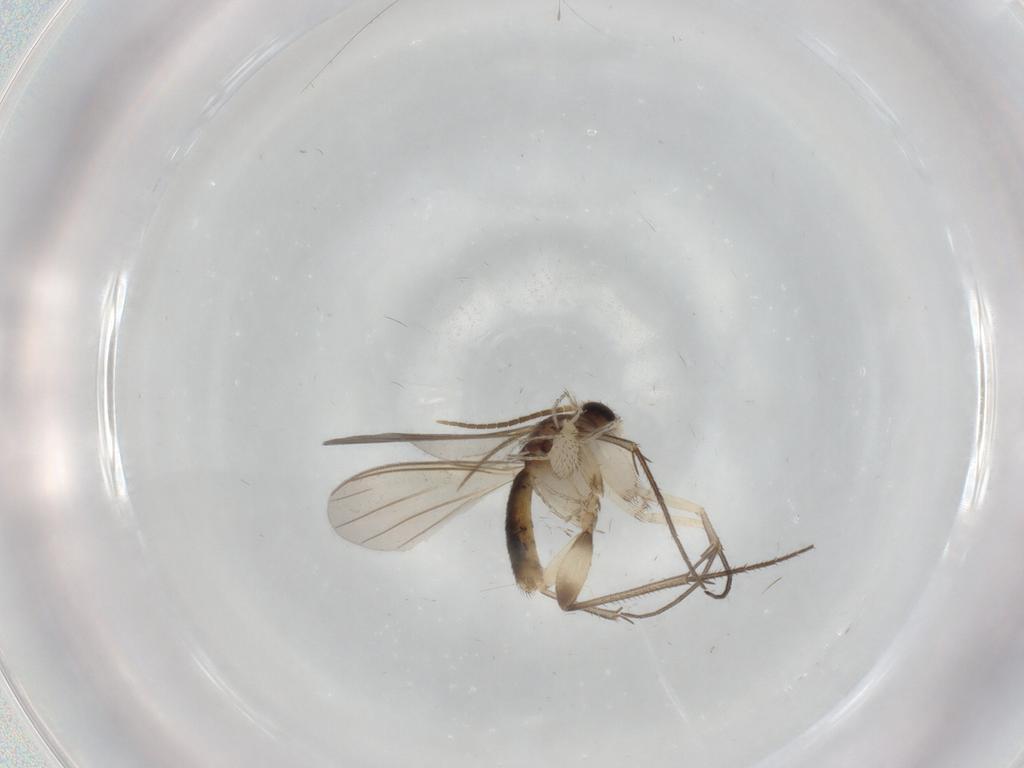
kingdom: Animalia
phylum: Arthropoda
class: Insecta
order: Diptera
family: Mycetophilidae
